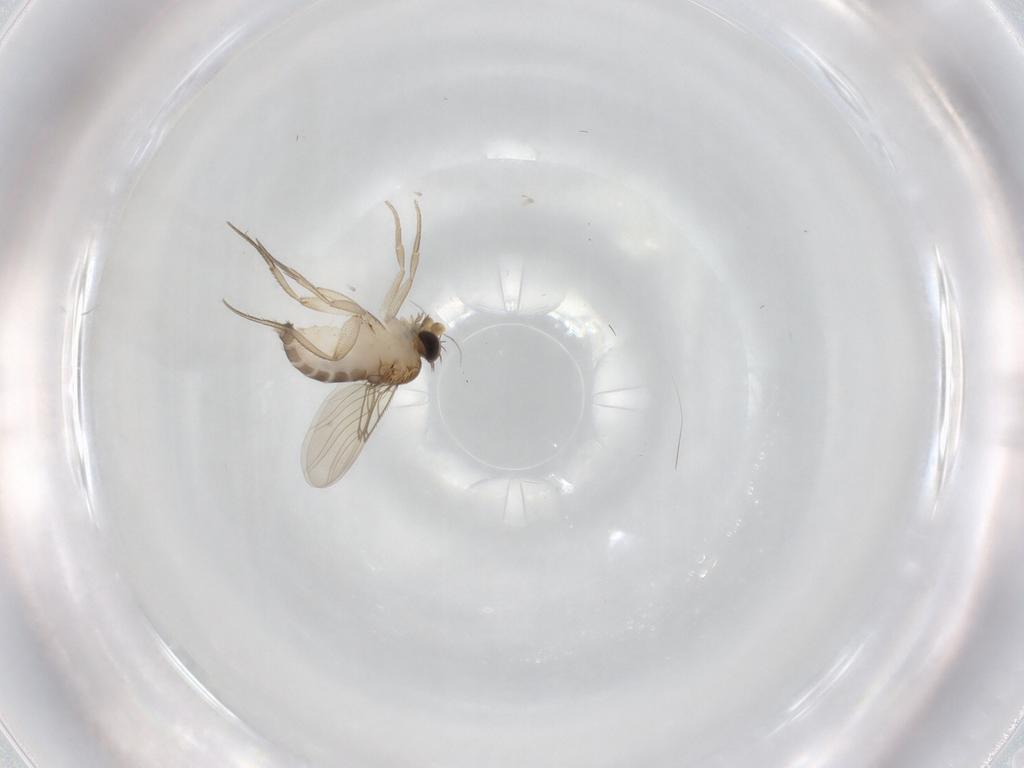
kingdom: Animalia
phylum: Arthropoda
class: Insecta
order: Diptera
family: Phoridae
